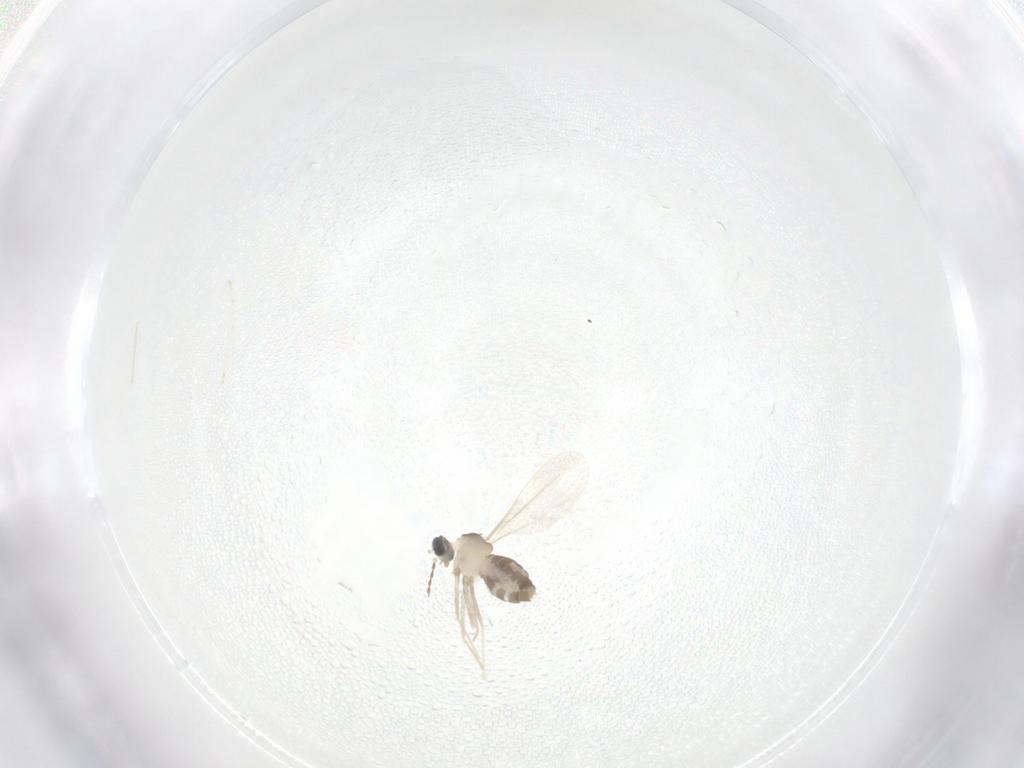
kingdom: Animalia
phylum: Arthropoda
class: Insecta
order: Diptera
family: Cecidomyiidae
